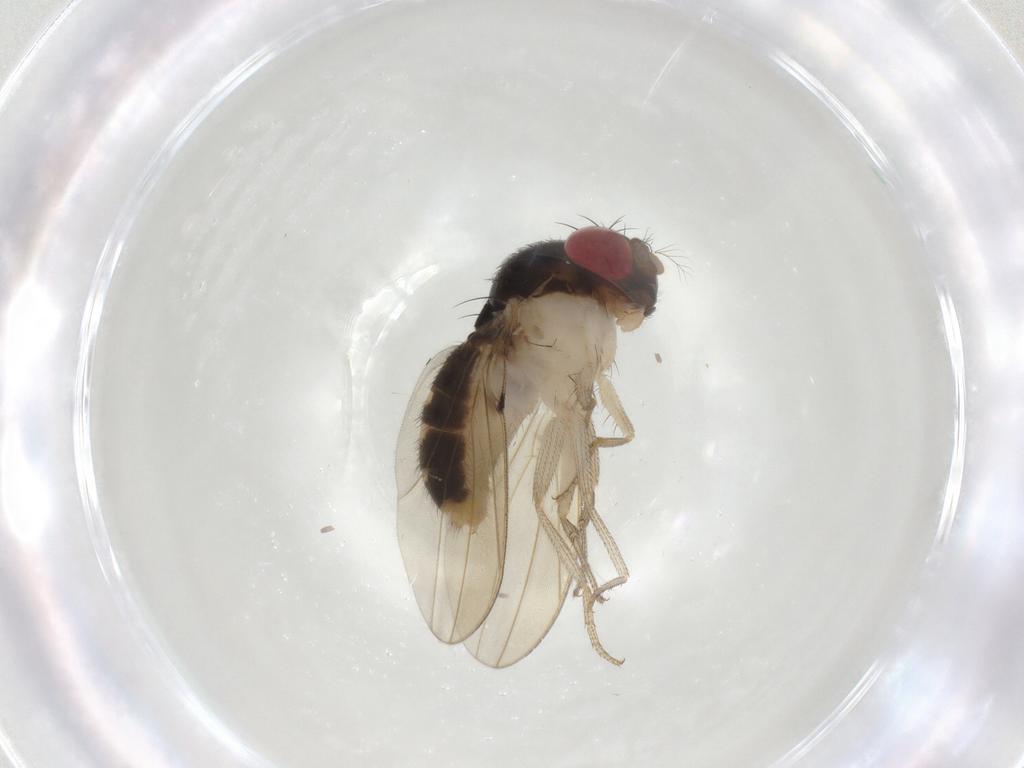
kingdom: Animalia
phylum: Arthropoda
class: Insecta
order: Diptera
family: Drosophilidae
